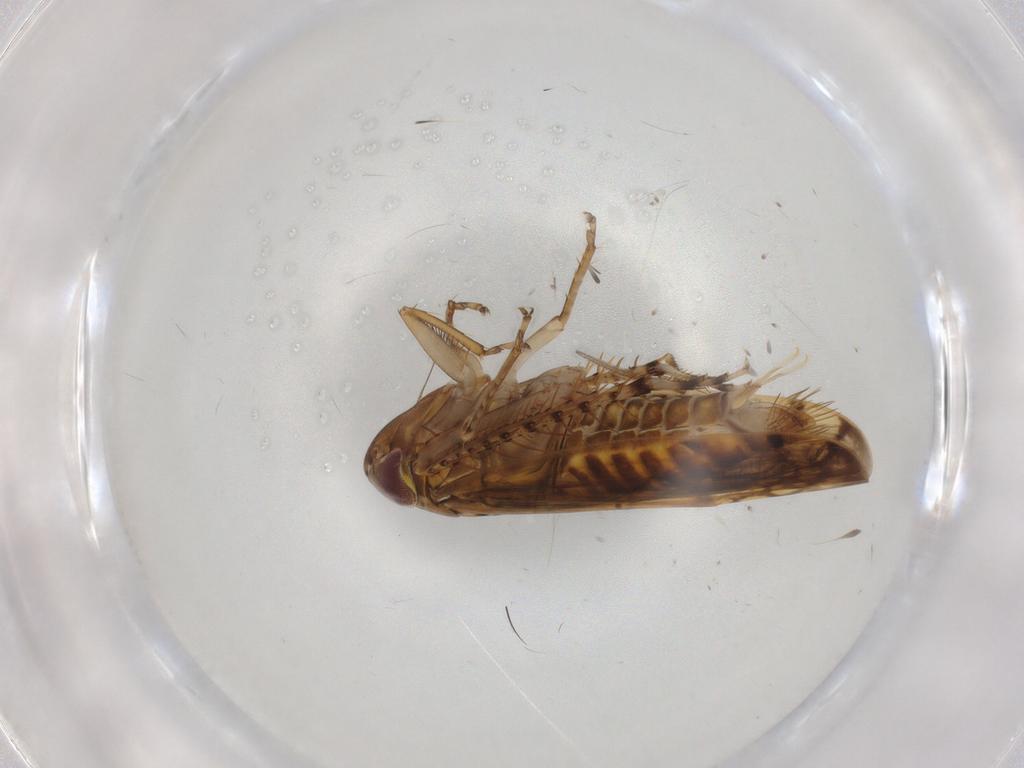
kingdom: Animalia
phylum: Arthropoda
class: Insecta
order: Hemiptera
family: Cicadellidae
